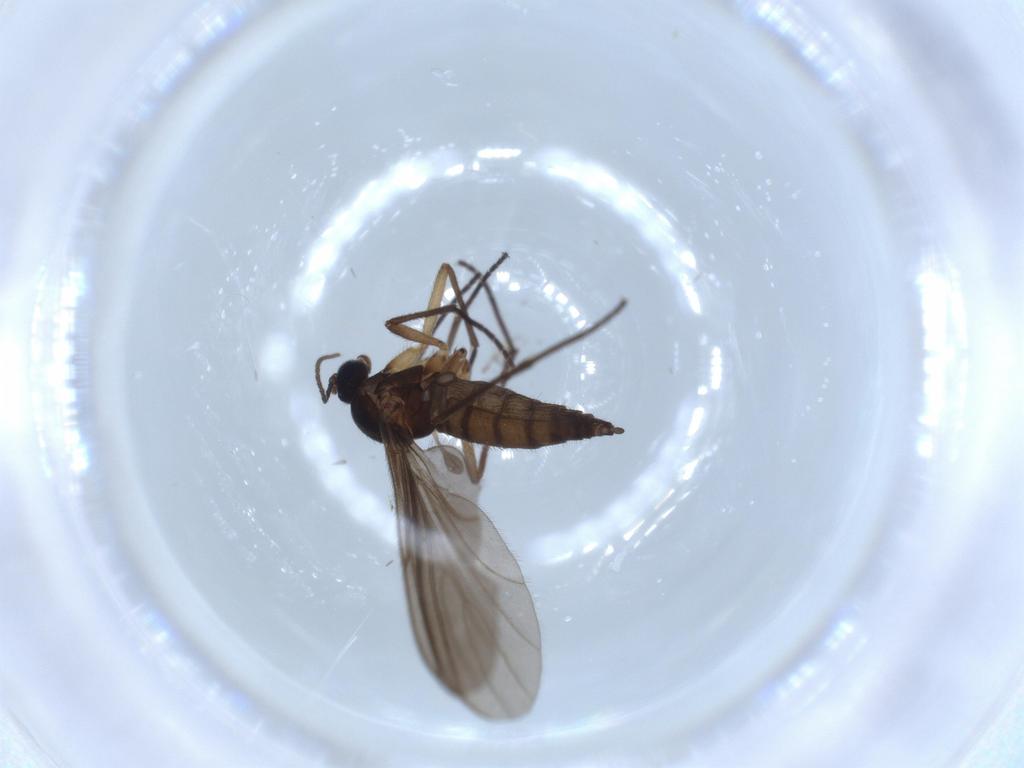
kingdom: Animalia
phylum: Arthropoda
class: Insecta
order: Diptera
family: Sciaridae
